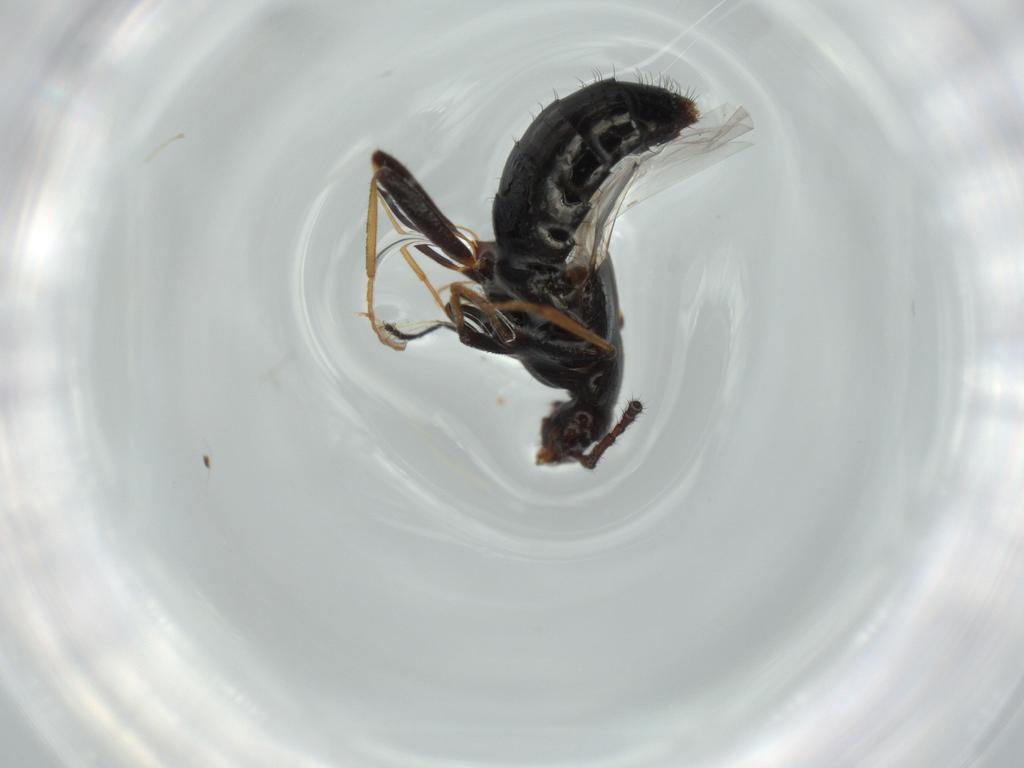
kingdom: Animalia
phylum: Arthropoda
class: Insecta
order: Coleoptera
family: Staphylinidae
